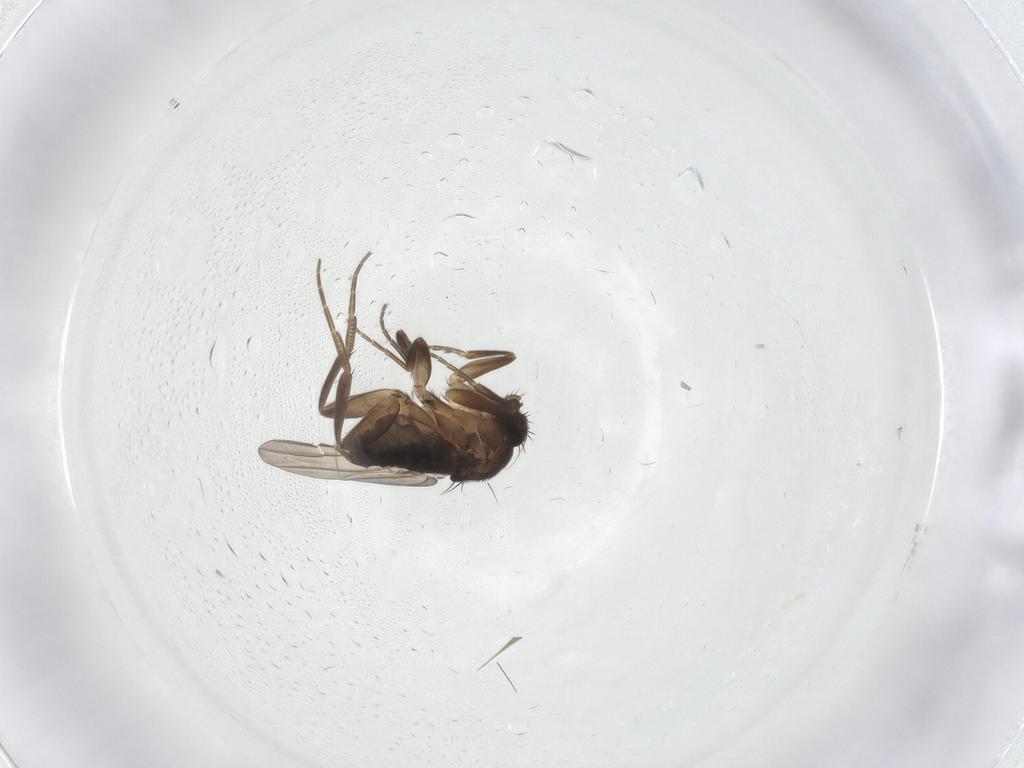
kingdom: Animalia
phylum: Arthropoda
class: Insecta
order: Diptera
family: Phoridae
